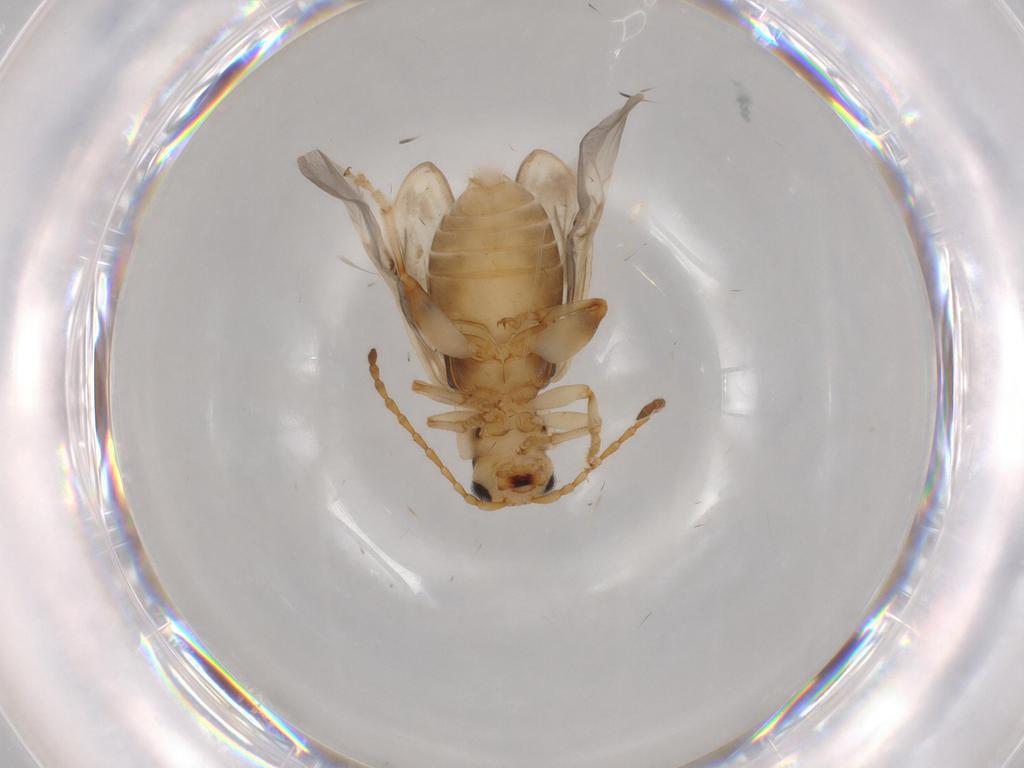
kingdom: Animalia
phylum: Arthropoda
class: Insecta
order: Coleoptera
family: Chrysomelidae
